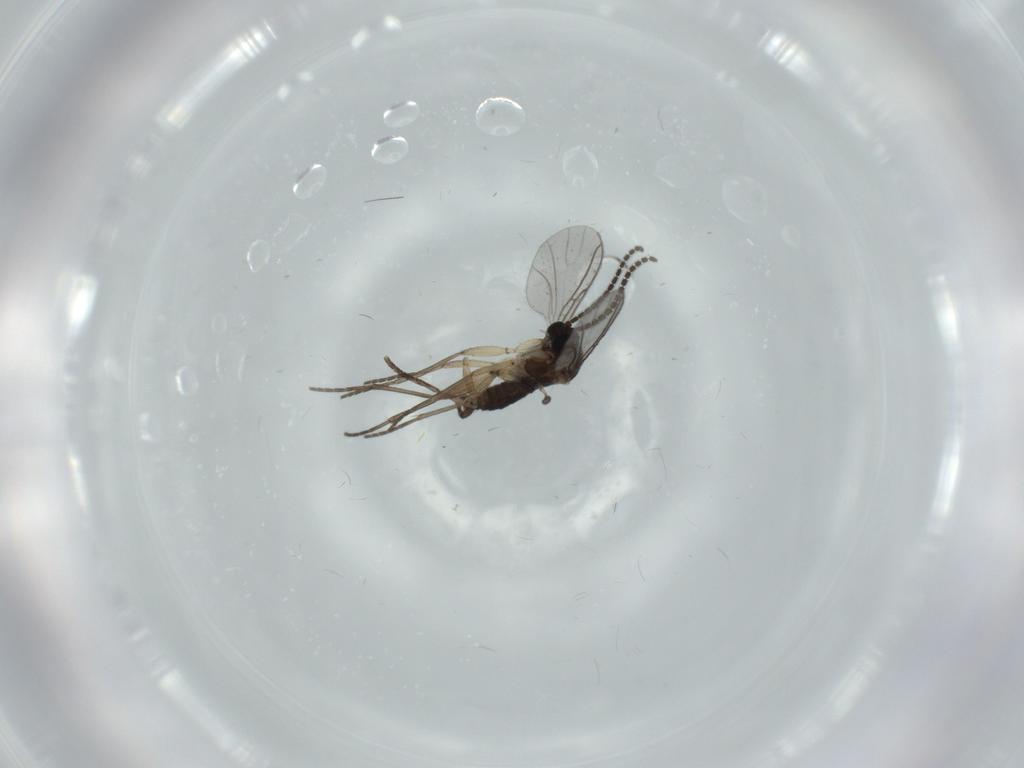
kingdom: Animalia
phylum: Arthropoda
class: Insecta
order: Diptera
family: Sciaridae
